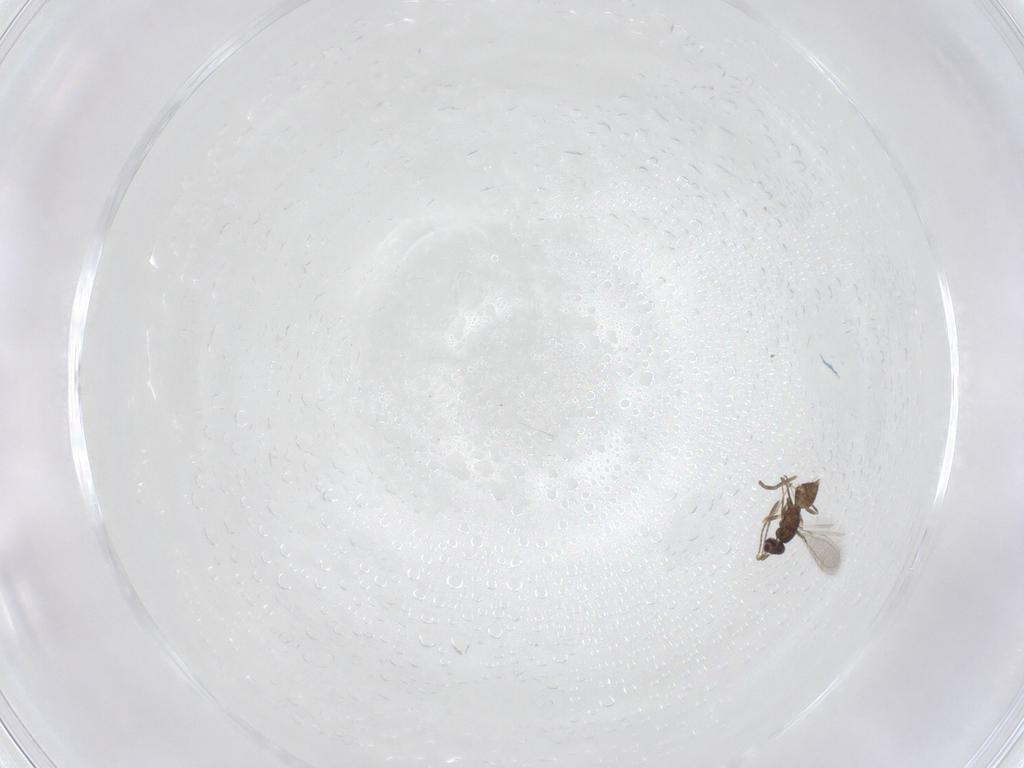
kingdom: Animalia
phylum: Arthropoda
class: Insecta
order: Hymenoptera
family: Mymaridae
